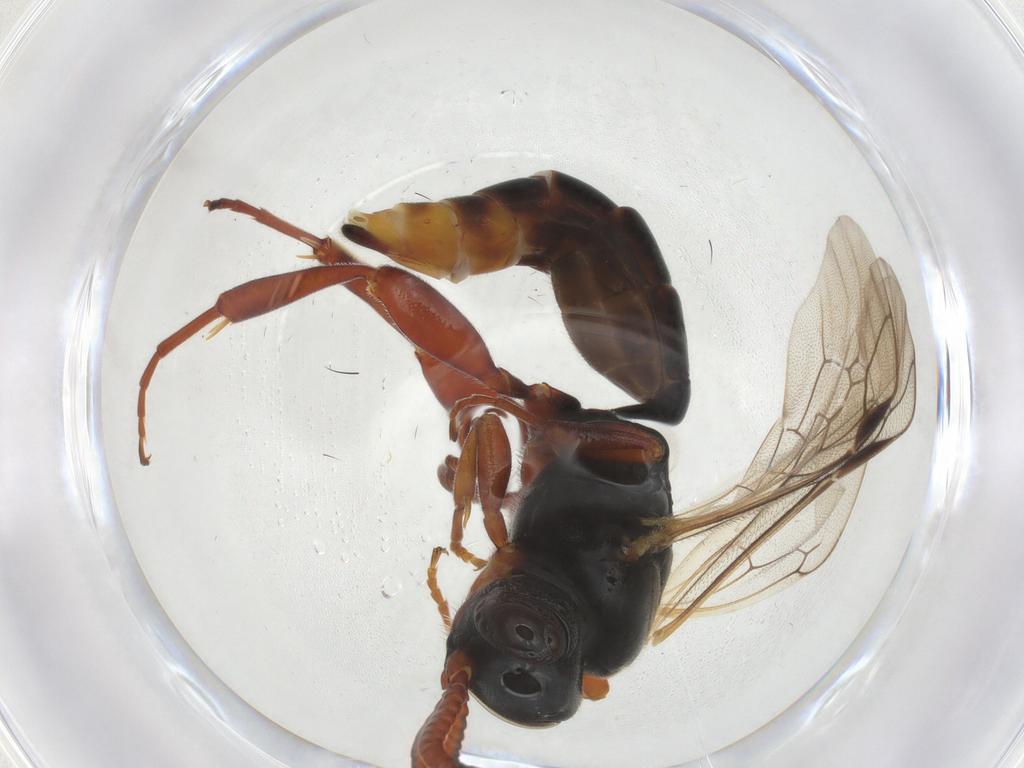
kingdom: Animalia
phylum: Arthropoda
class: Insecta
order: Hymenoptera
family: Ichneumonidae
